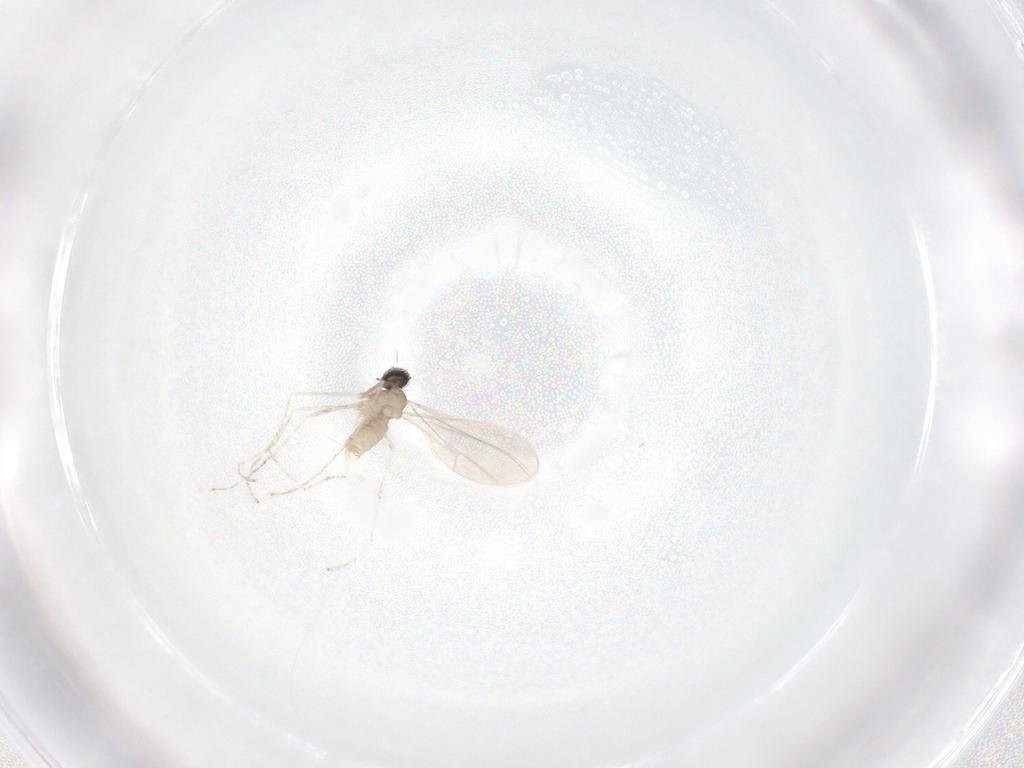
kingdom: Animalia
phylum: Arthropoda
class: Insecta
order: Diptera
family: Cecidomyiidae
